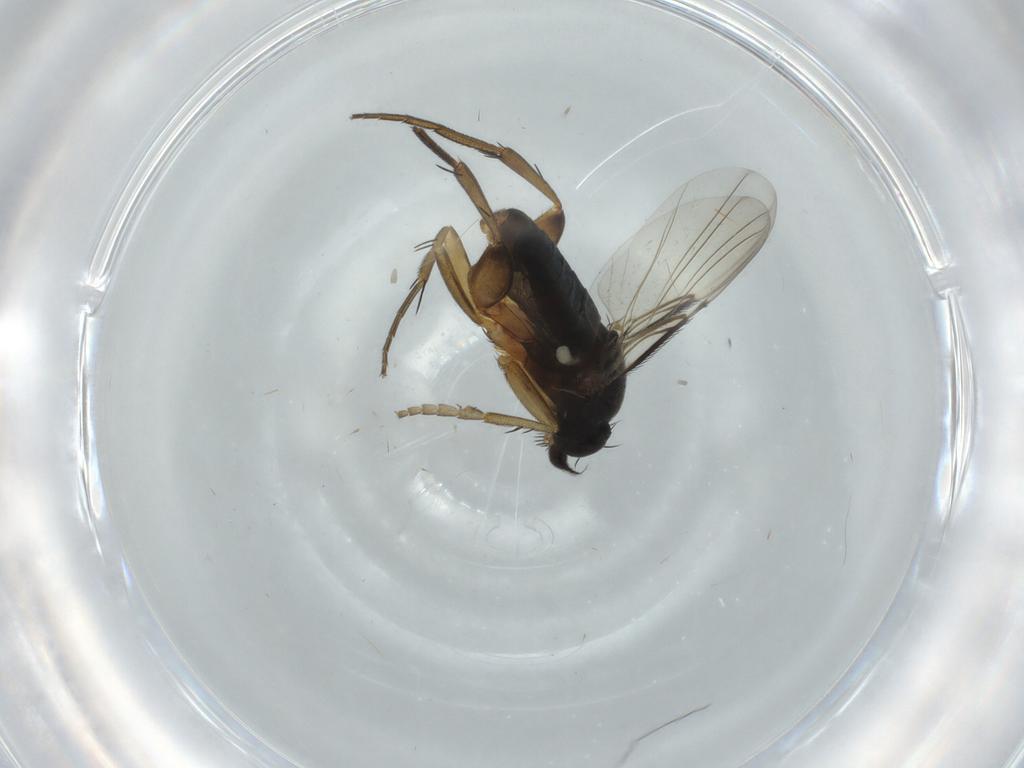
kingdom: Animalia
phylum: Arthropoda
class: Insecta
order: Diptera
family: Phoridae
